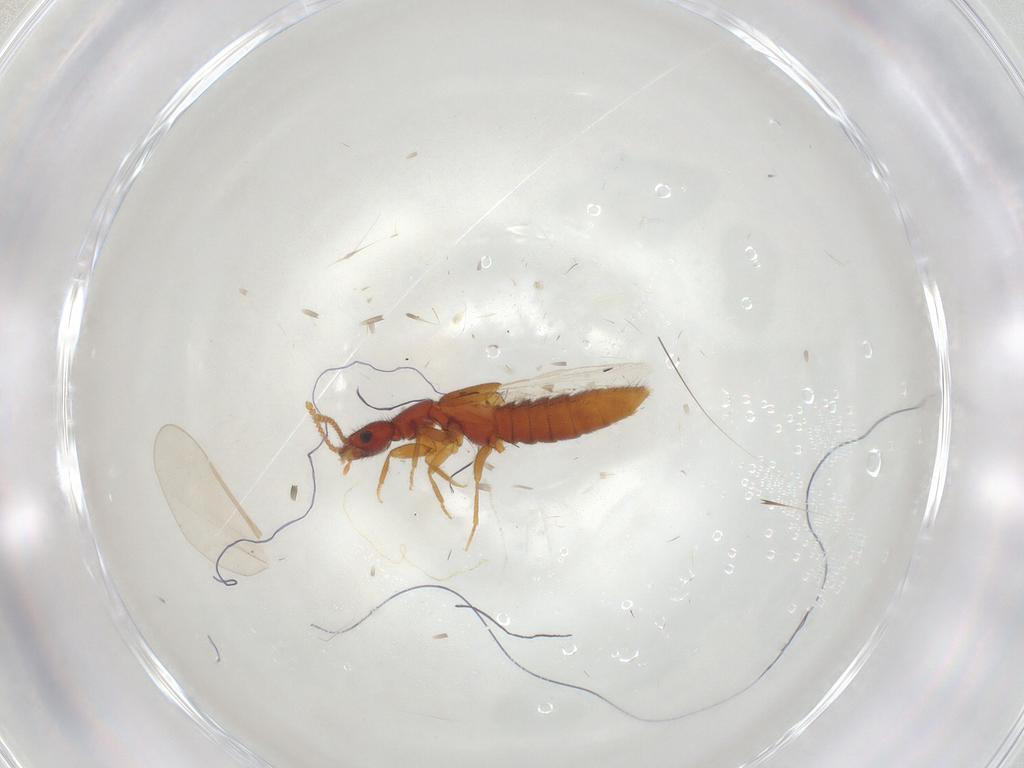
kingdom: Animalia
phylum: Arthropoda
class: Insecta
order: Coleoptera
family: Staphylinidae
